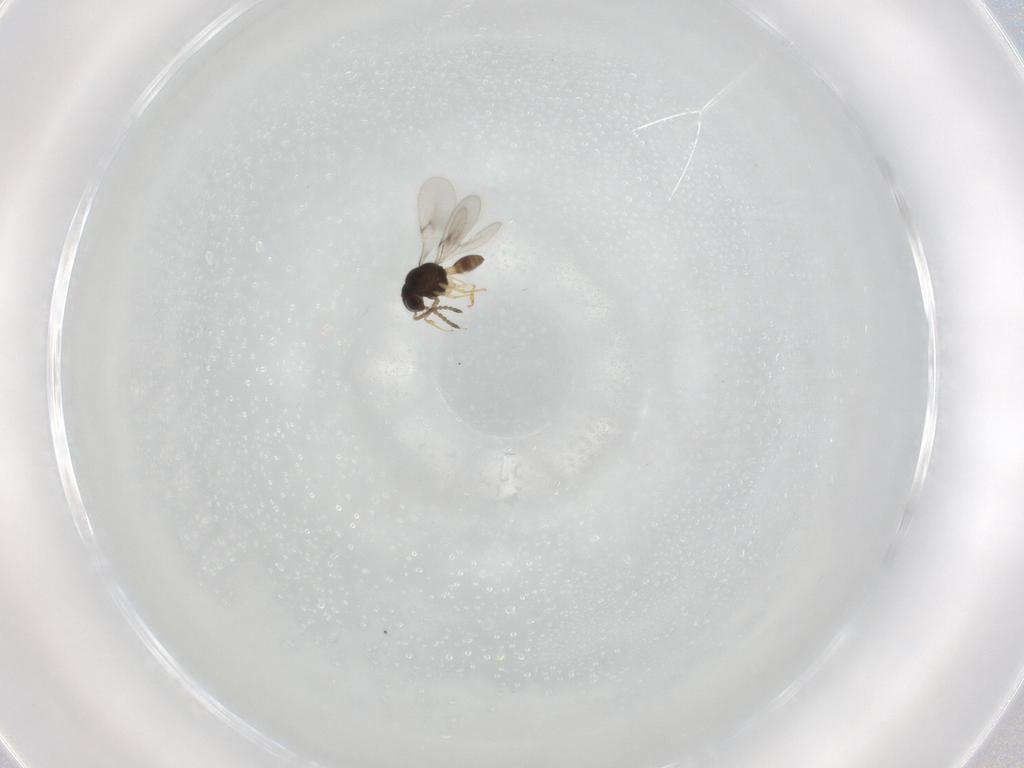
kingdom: Animalia
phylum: Arthropoda
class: Insecta
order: Hymenoptera
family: Scelionidae
